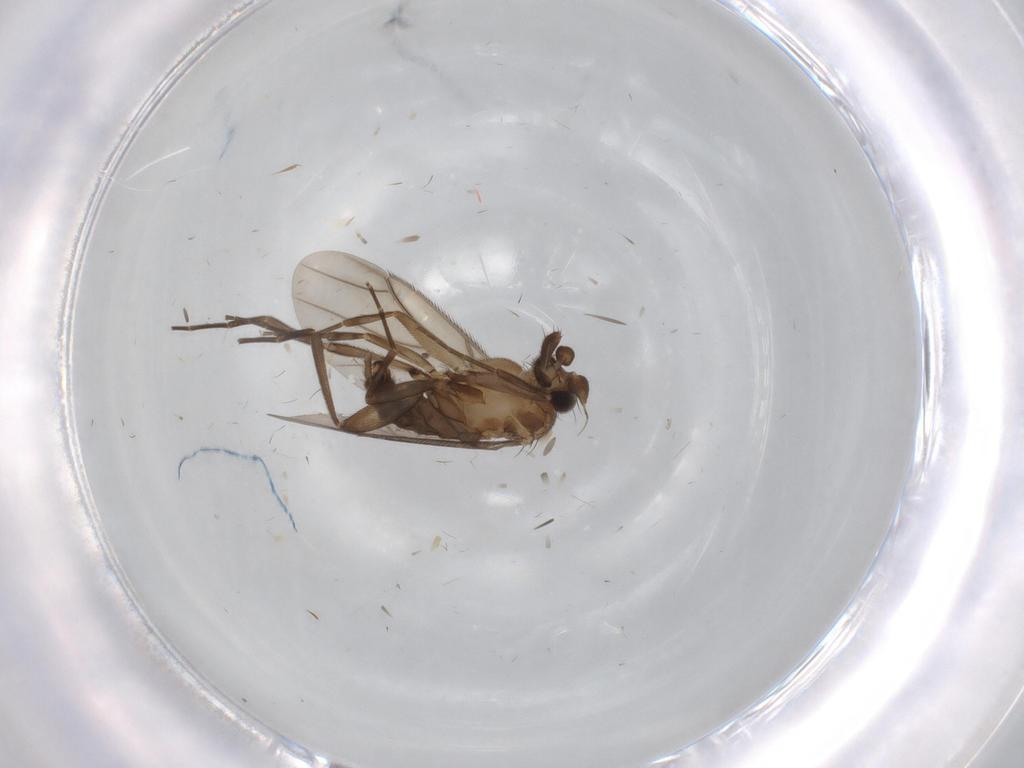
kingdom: Animalia
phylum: Arthropoda
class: Insecta
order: Diptera
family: Phoridae
